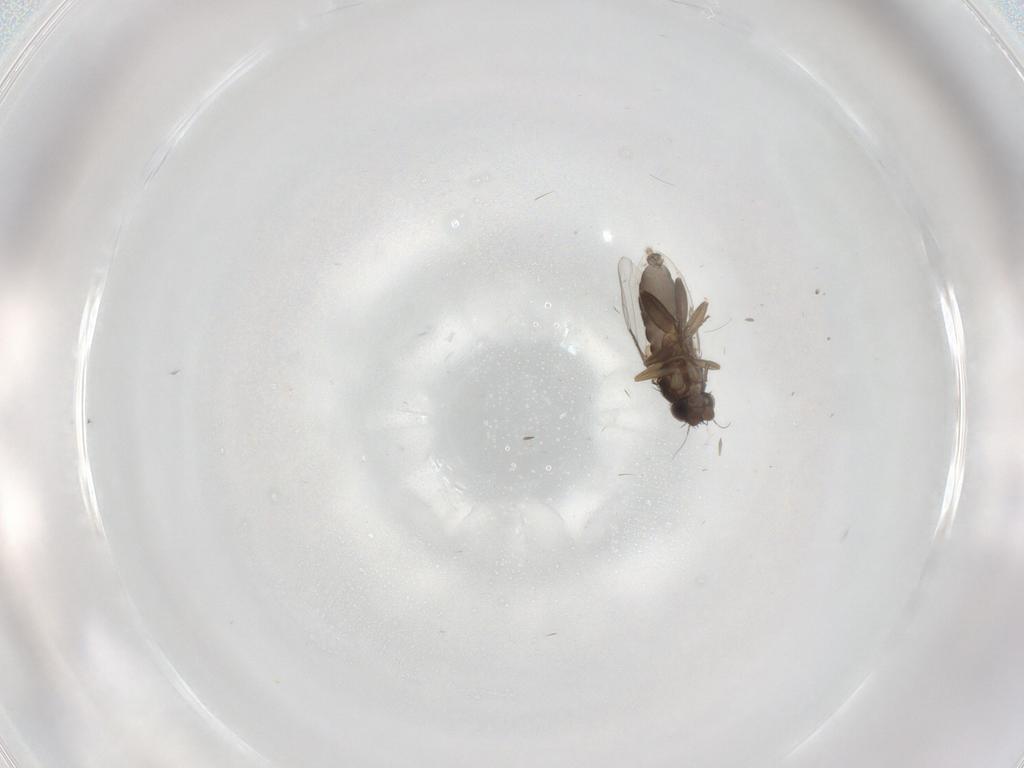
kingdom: Animalia
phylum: Arthropoda
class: Insecta
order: Diptera
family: Phoridae
